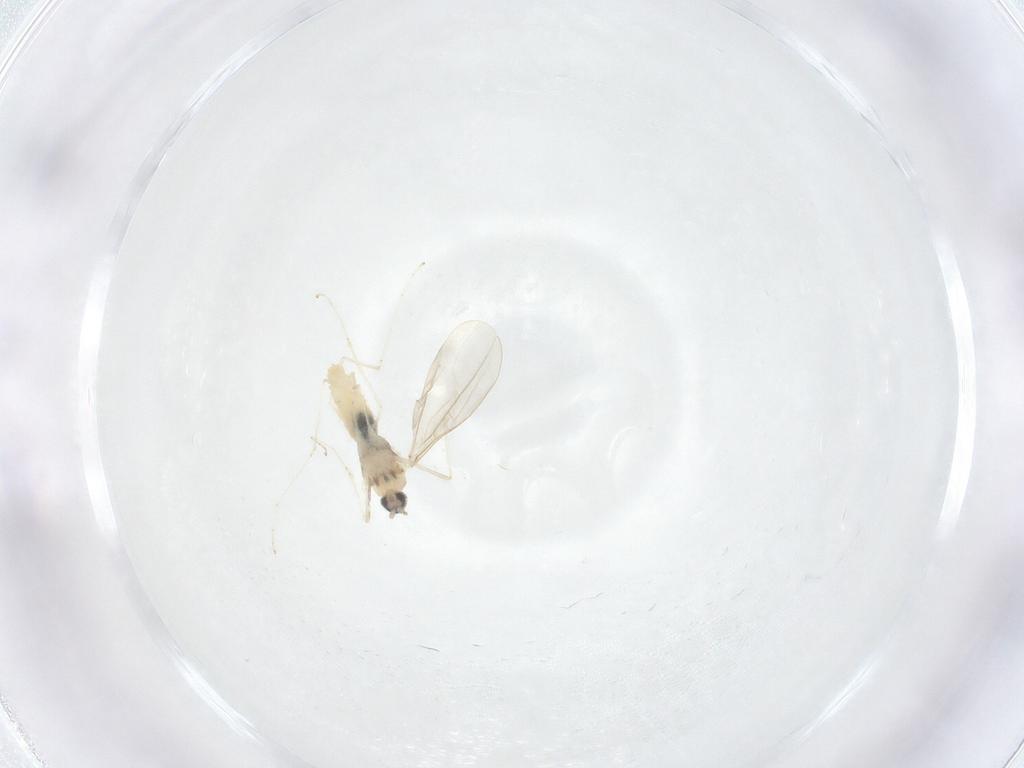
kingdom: Animalia
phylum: Arthropoda
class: Insecta
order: Diptera
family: Cecidomyiidae
